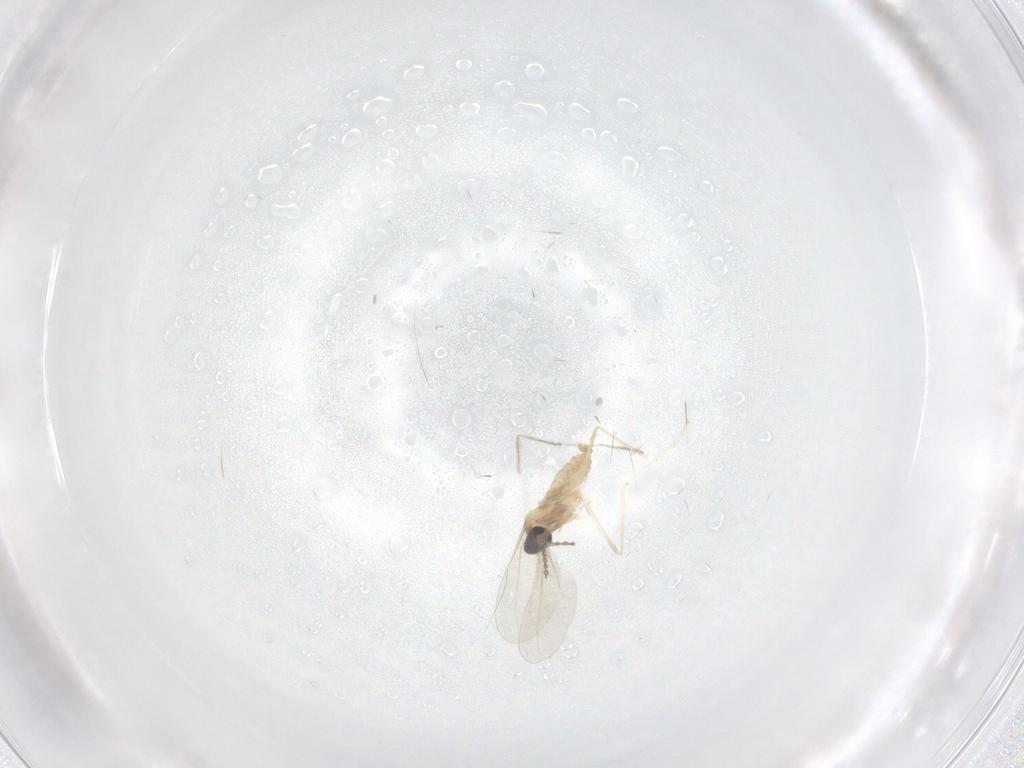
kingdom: Animalia
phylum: Arthropoda
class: Insecta
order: Diptera
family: Cecidomyiidae
